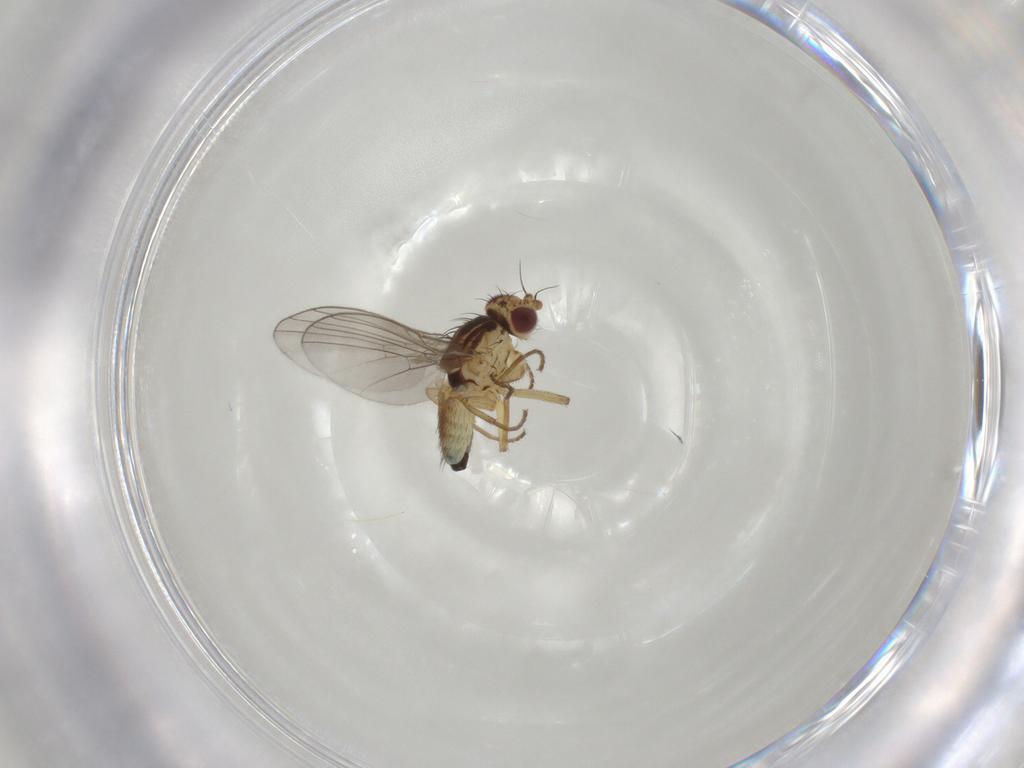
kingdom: Animalia
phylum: Arthropoda
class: Insecta
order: Diptera
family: Agromyzidae
